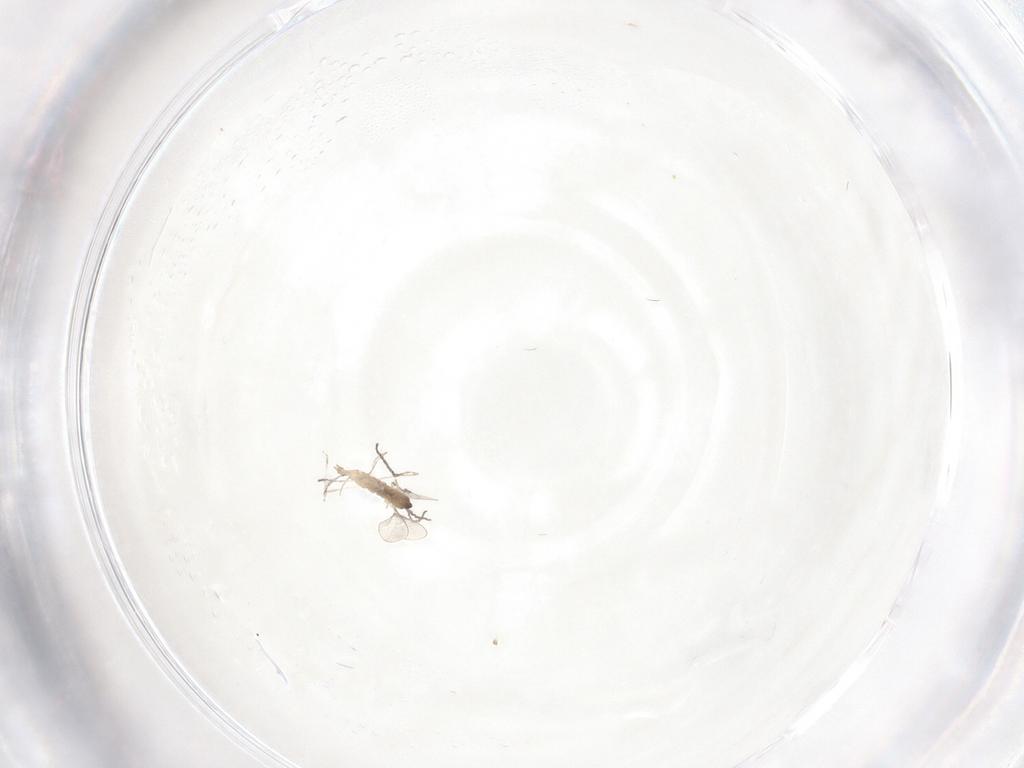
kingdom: Animalia
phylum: Arthropoda
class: Insecta
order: Diptera
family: Cecidomyiidae
